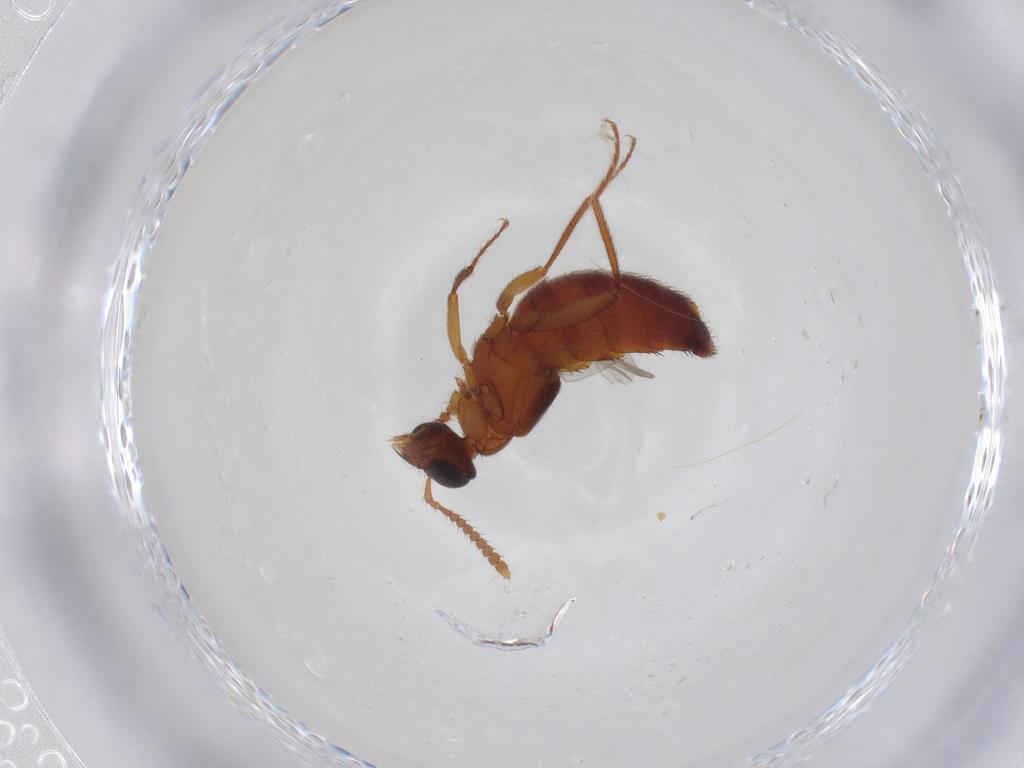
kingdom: Animalia
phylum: Arthropoda
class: Insecta
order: Coleoptera
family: Staphylinidae
